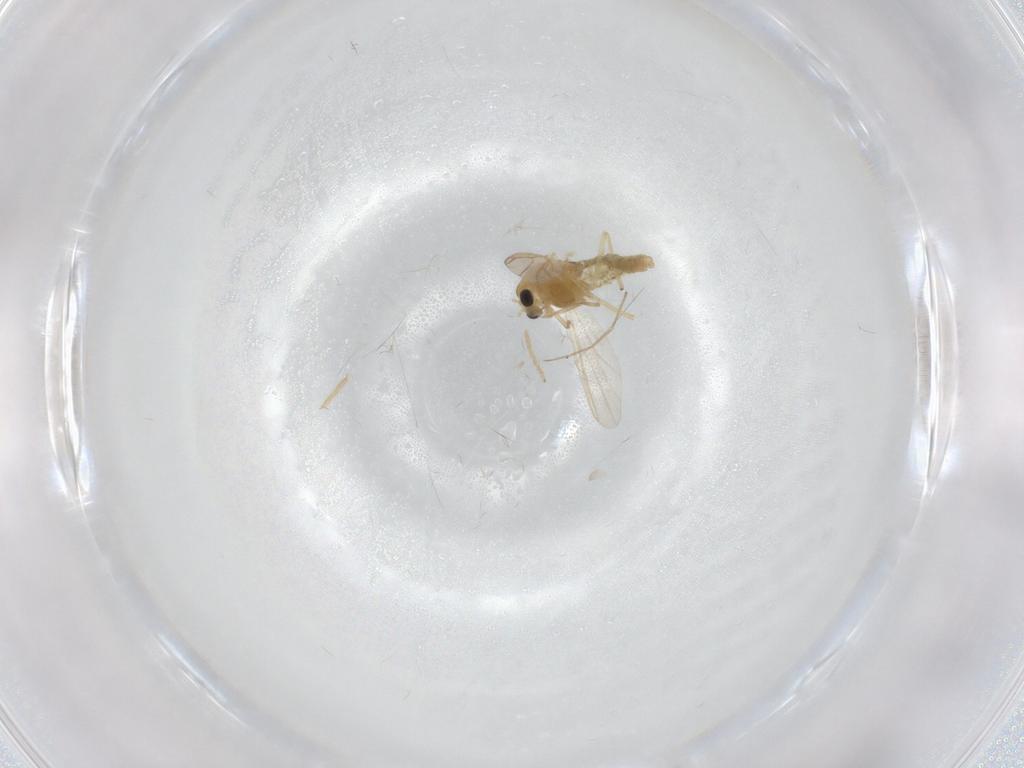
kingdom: Animalia
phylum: Arthropoda
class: Insecta
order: Diptera
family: Chironomidae
